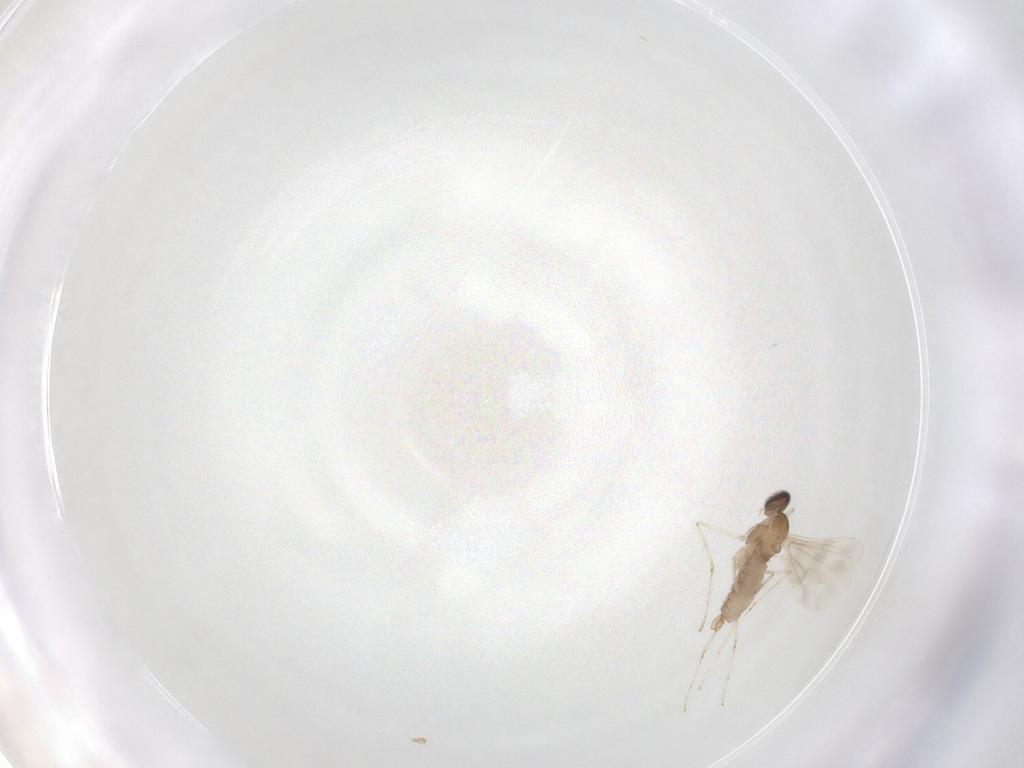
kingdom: Animalia
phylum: Arthropoda
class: Insecta
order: Diptera
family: Cecidomyiidae
